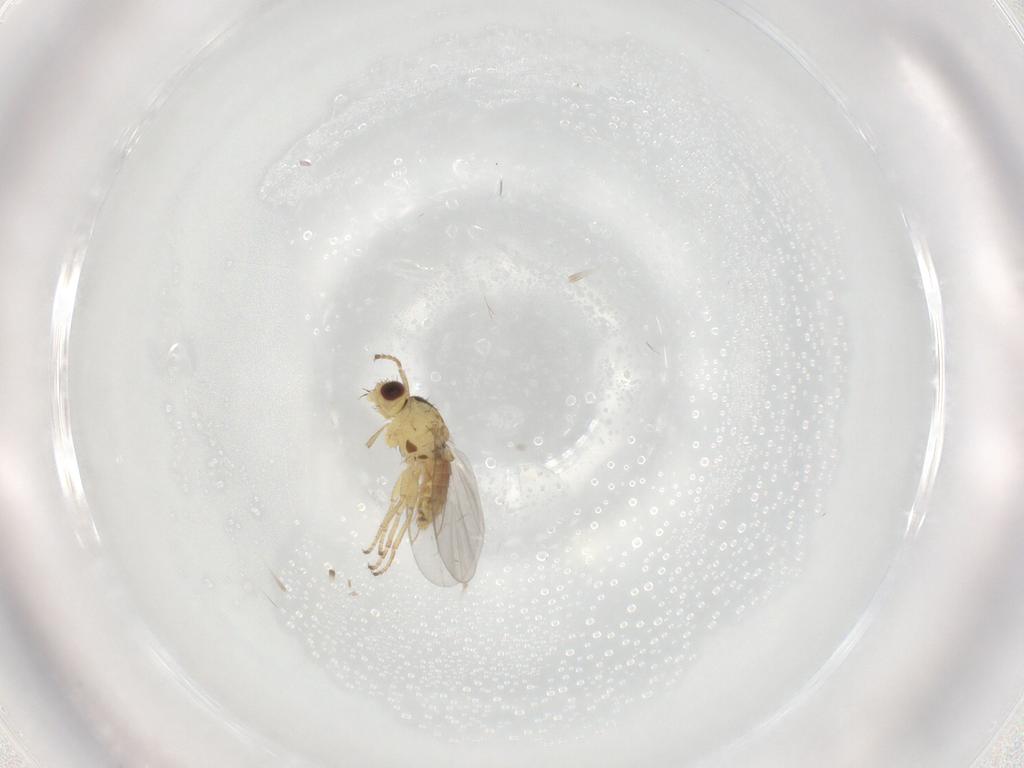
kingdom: Animalia
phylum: Arthropoda
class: Insecta
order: Diptera
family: Agromyzidae
